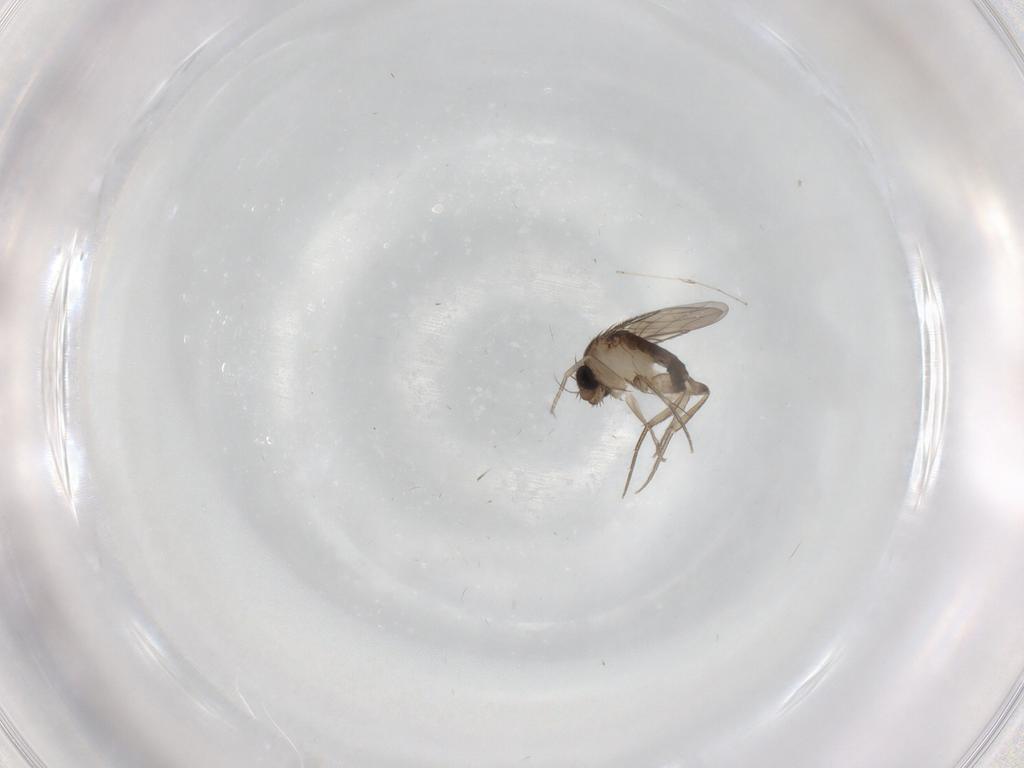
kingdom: Animalia
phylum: Arthropoda
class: Insecta
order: Diptera
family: Phoridae
